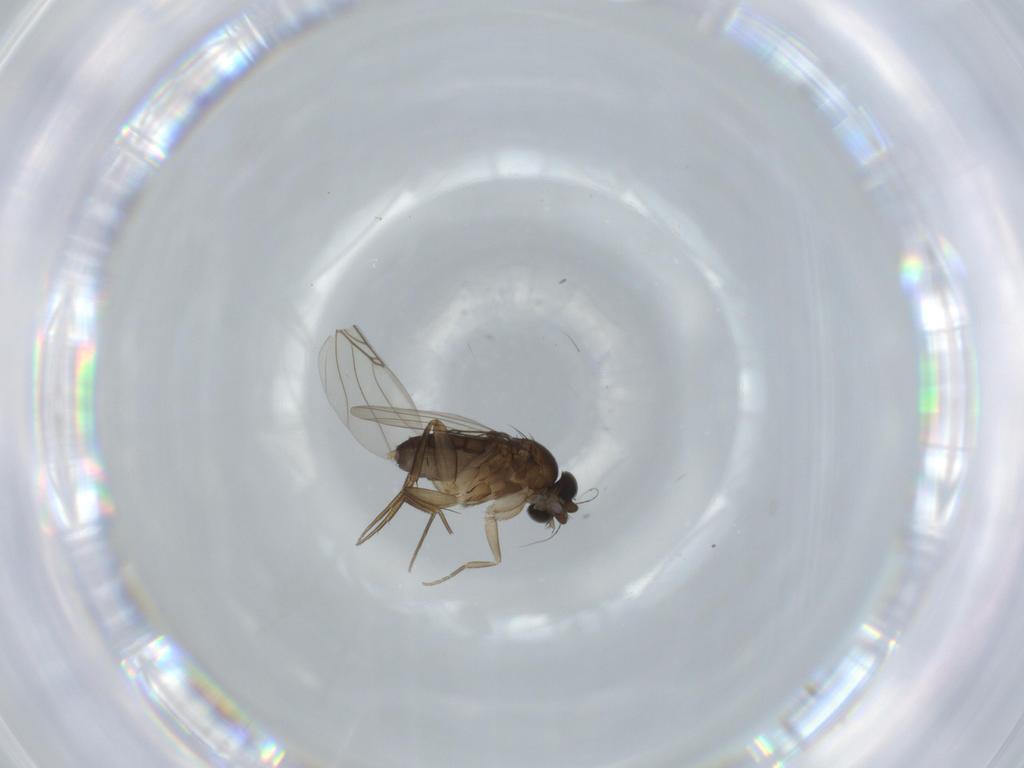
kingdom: Animalia
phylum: Arthropoda
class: Insecta
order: Diptera
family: Phoridae
